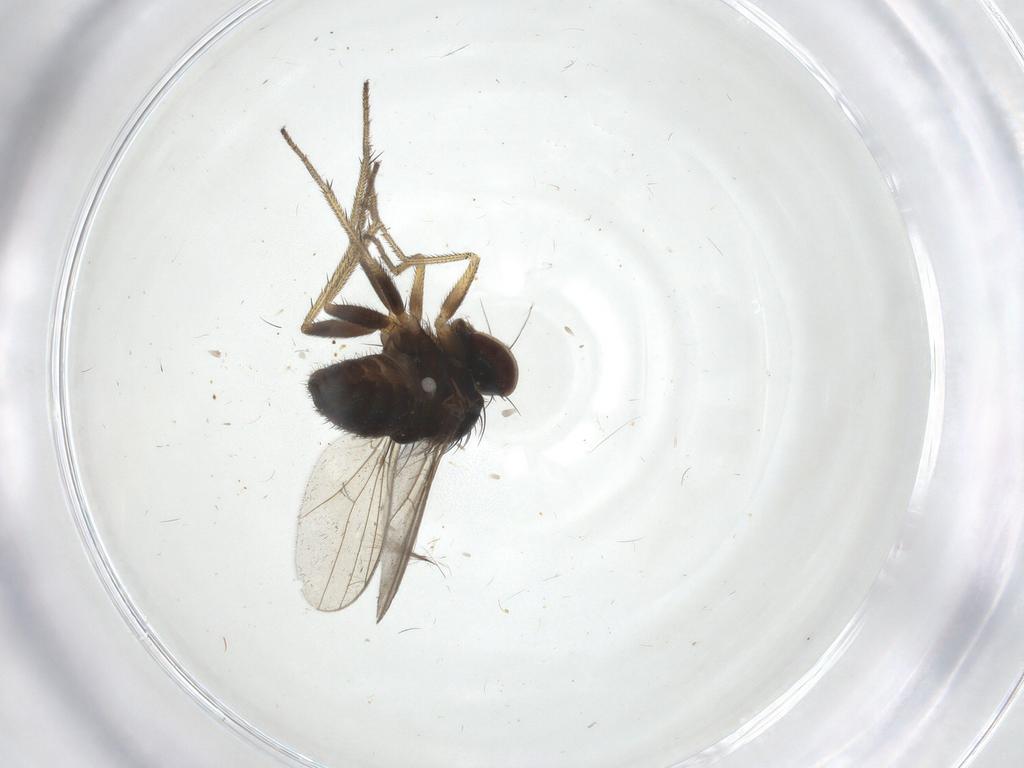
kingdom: Animalia
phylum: Arthropoda
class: Insecta
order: Diptera
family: Dolichopodidae
